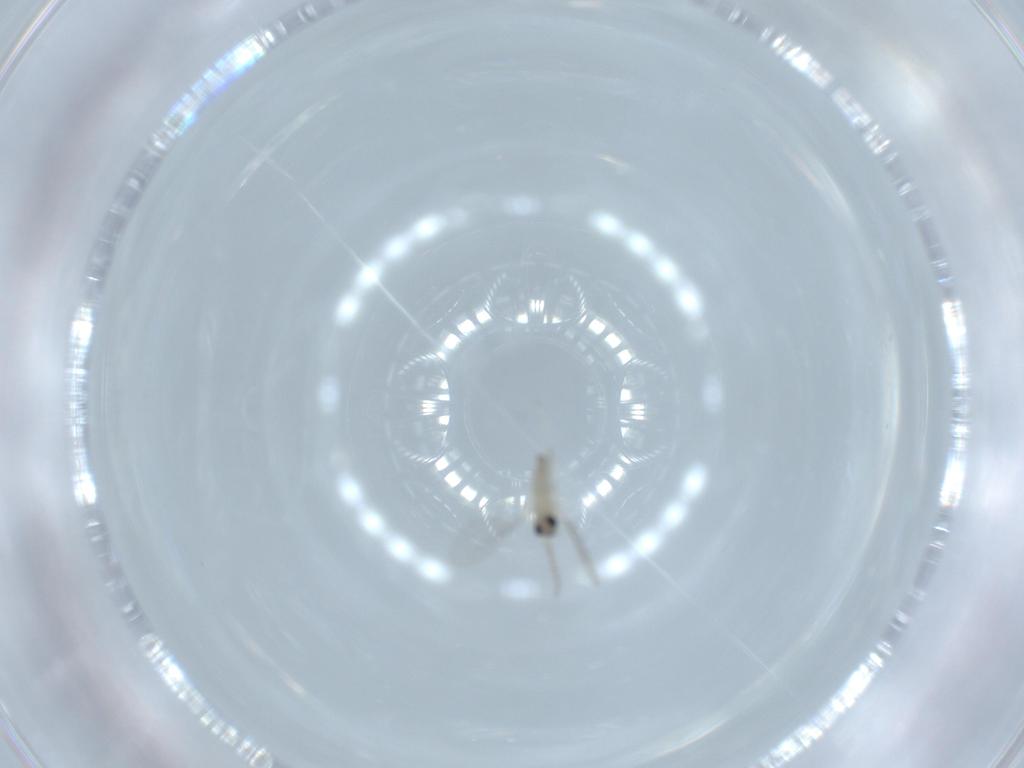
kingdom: Animalia
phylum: Arthropoda
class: Insecta
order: Diptera
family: Cecidomyiidae
